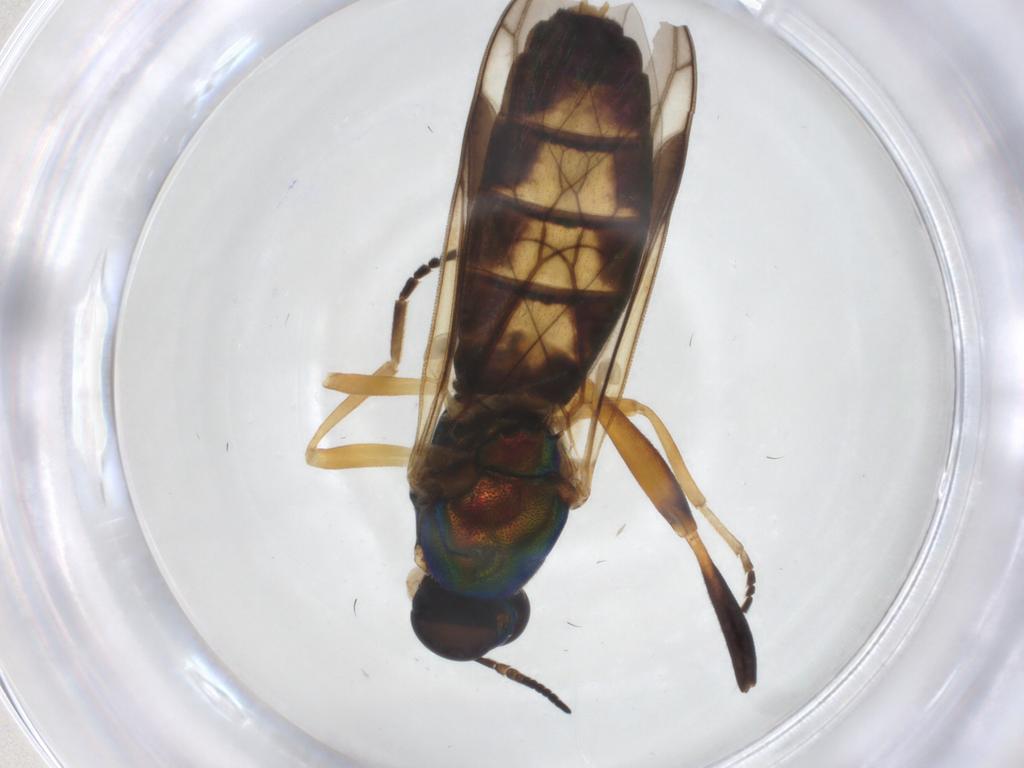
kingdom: Animalia
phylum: Arthropoda
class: Insecta
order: Diptera
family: Stratiomyidae
